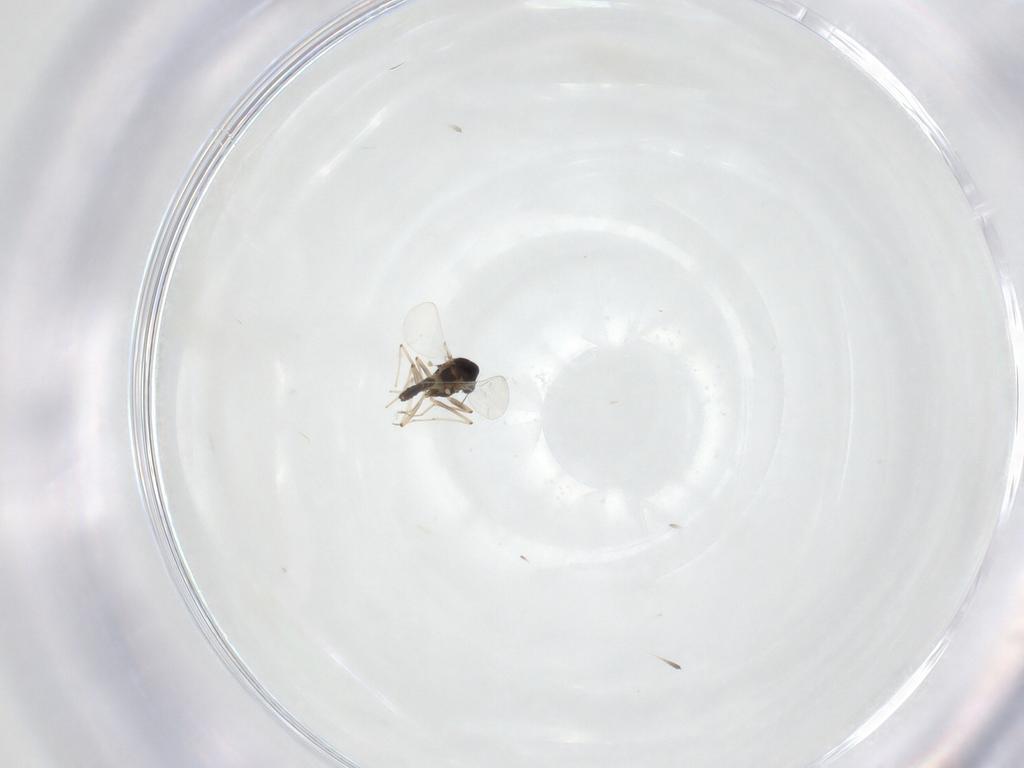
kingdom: Animalia
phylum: Arthropoda
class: Insecta
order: Diptera
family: Chironomidae
